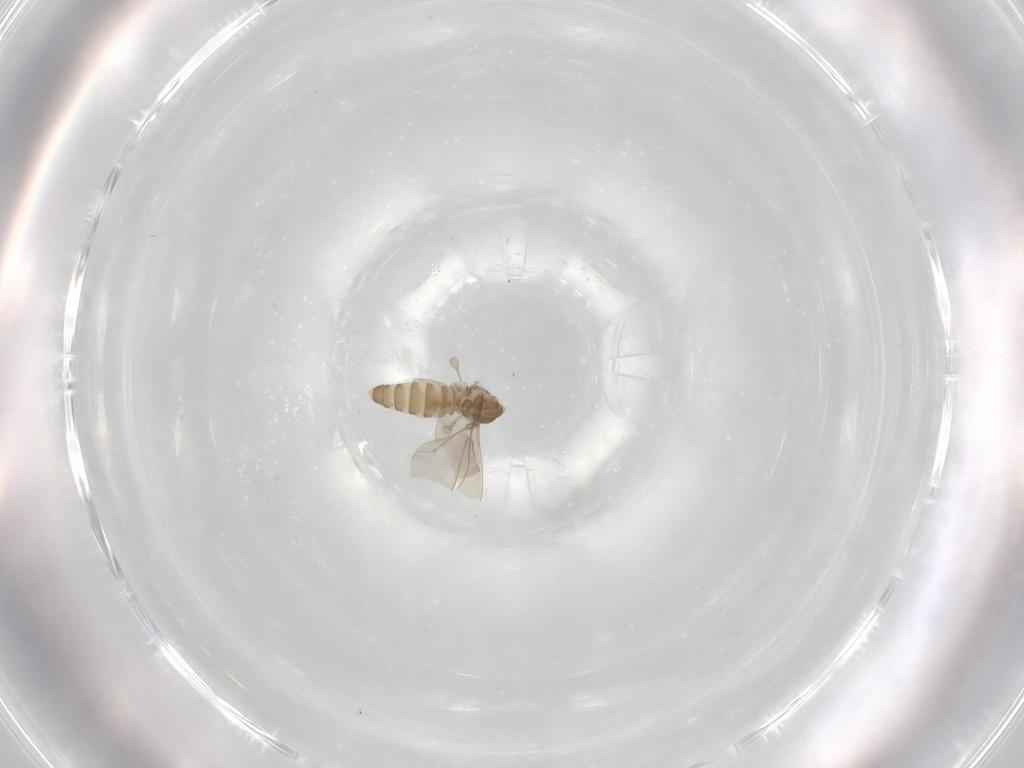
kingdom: Animalia
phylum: Arthropoda
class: Insecta
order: Diptera
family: Cecidomyiidae
